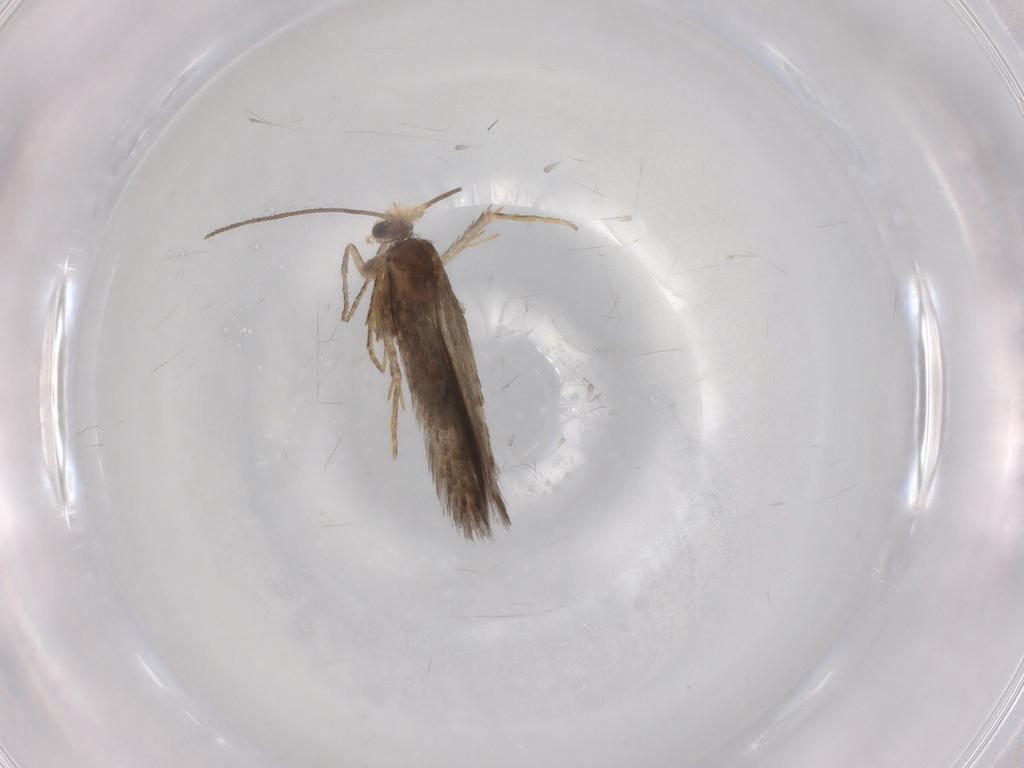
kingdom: Animalia
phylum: Arthropoda
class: Insecta
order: Lepidoptera
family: Nepticulidae
